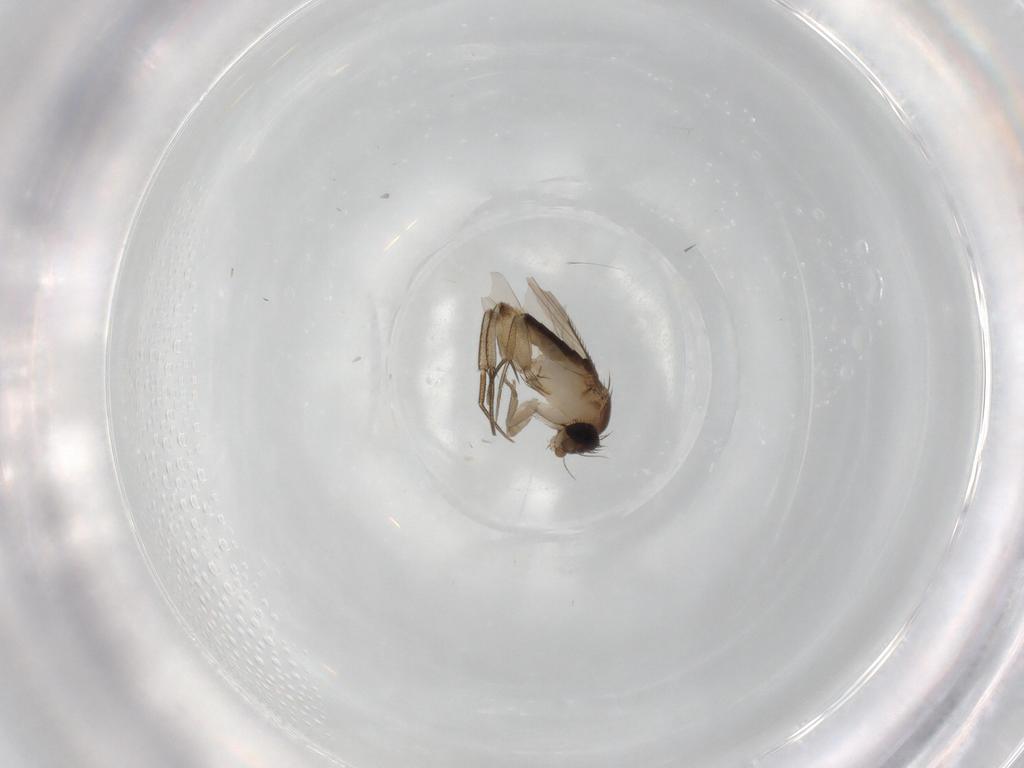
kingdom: Animalia
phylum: Arthropoda
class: Insecta
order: Diptera
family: Phoridae
